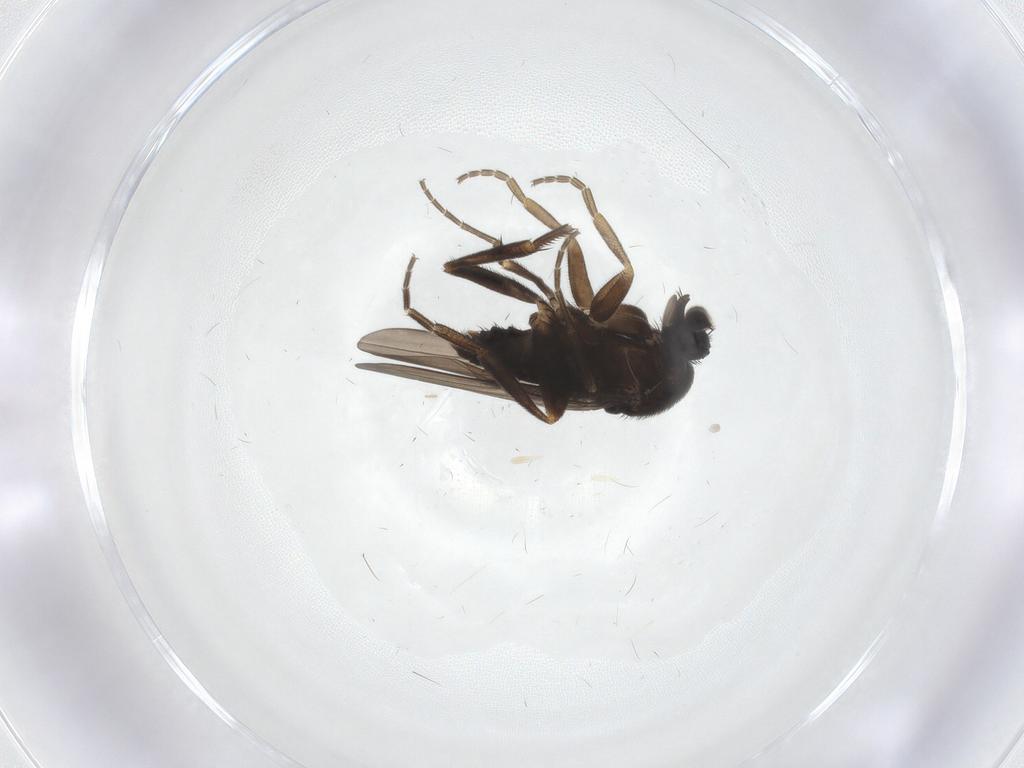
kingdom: Animalia
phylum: Arthropoda
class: Insecta
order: Diptera
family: Phoridae
